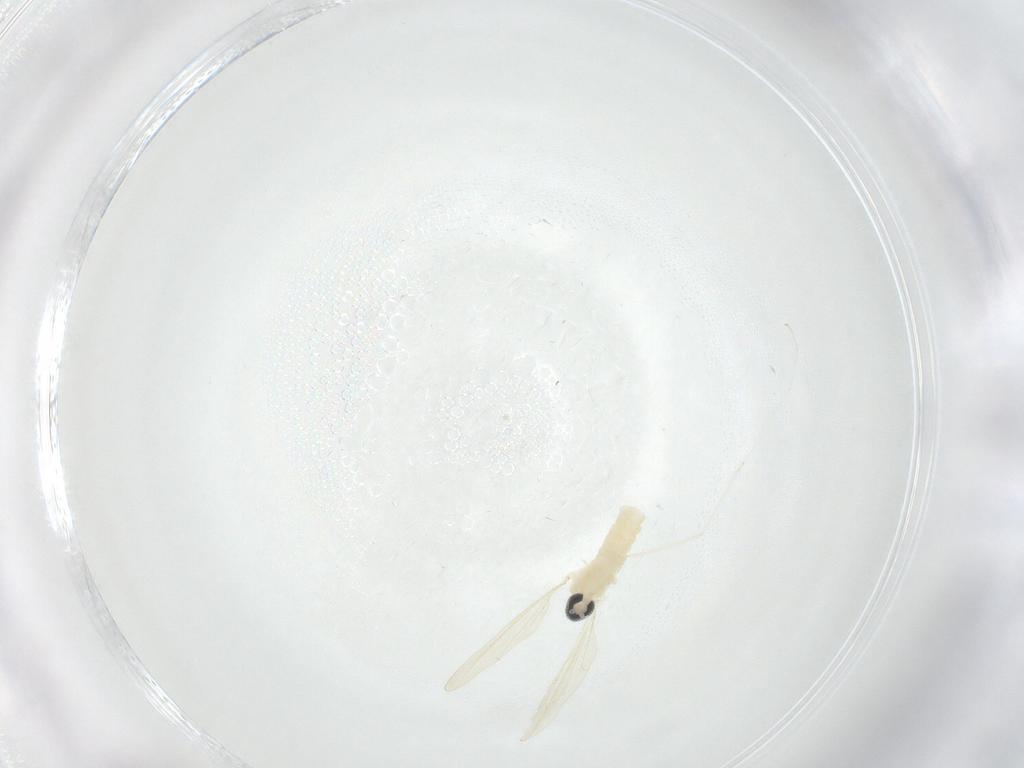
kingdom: Animalia
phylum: Arthropoda
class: Insecta
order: Diptera
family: Cecidomyiidae
